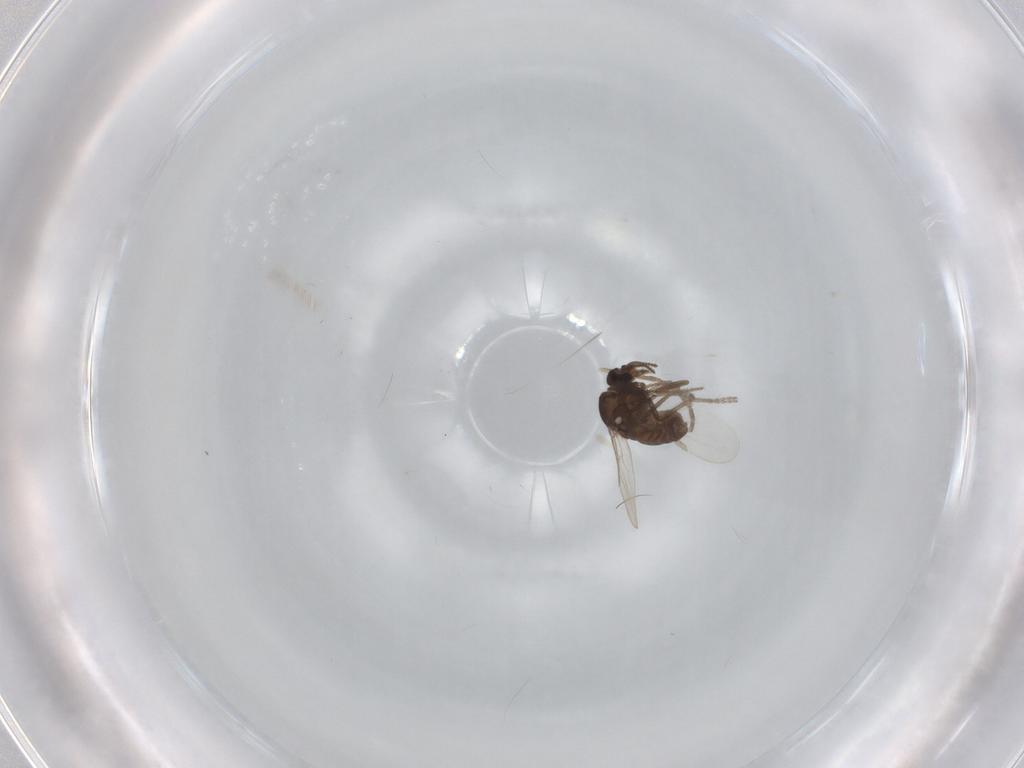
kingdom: Animalia
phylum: Arthropoda
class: Insecta
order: Diptera
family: Ceratopogonidae
